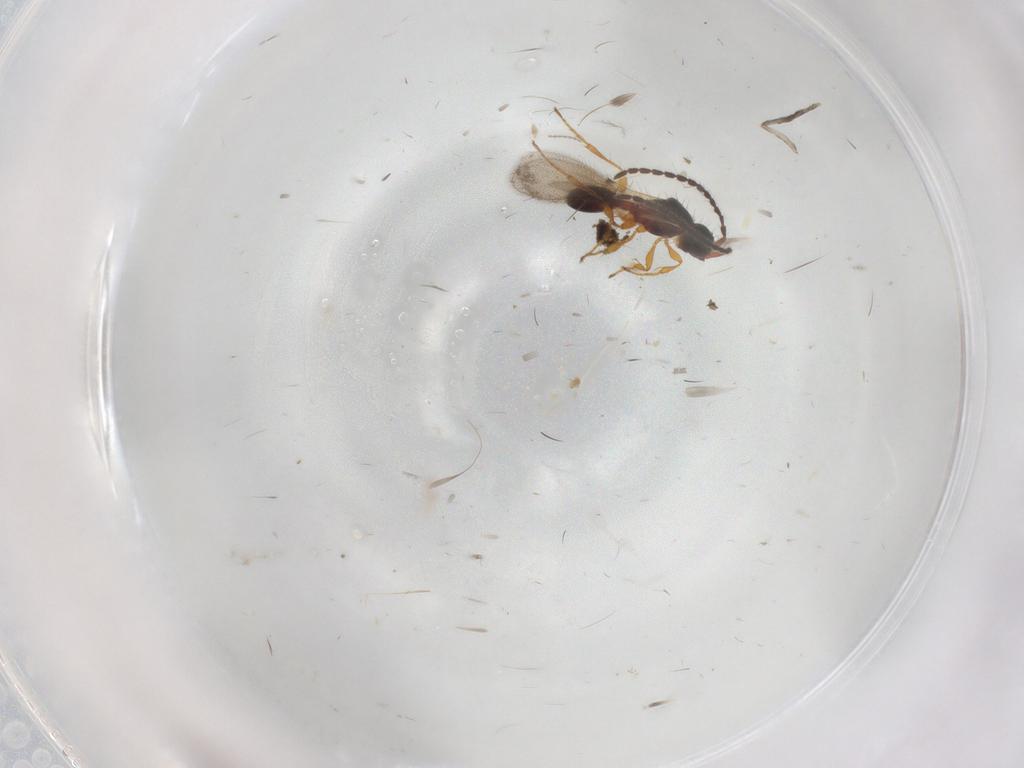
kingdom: Animalia
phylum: Arthropoda
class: Insecta
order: Hymenoptera
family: Diapriidae
